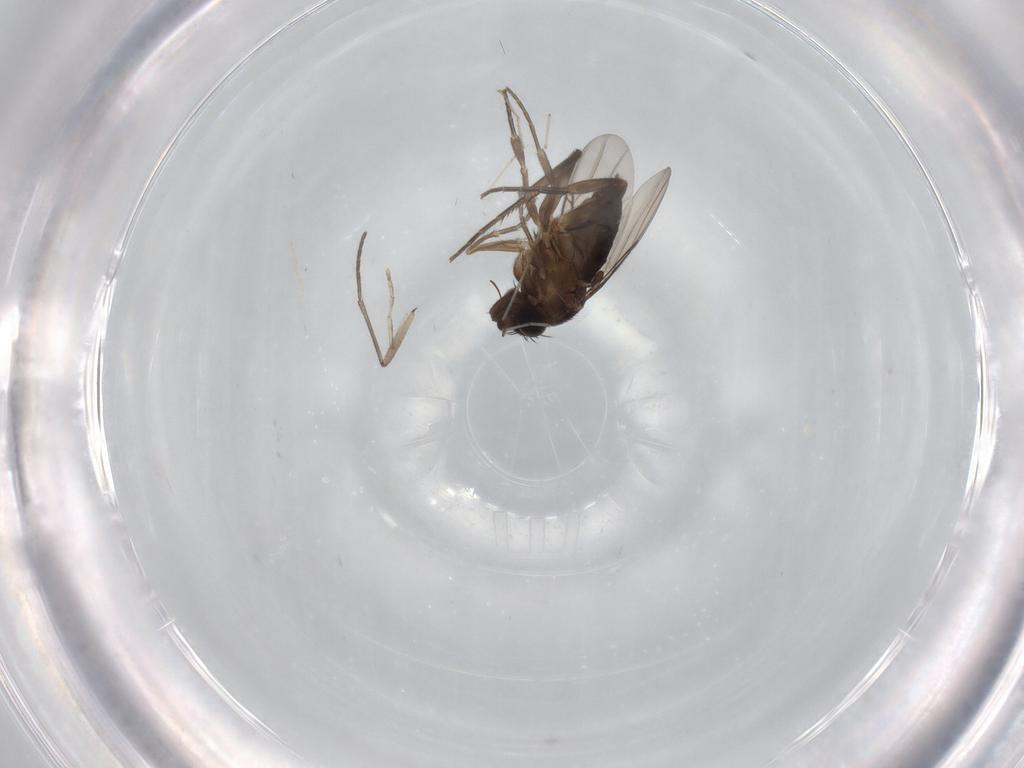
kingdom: Animalia
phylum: Arthropoda
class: Insecta
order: Diptera
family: Phoridae
